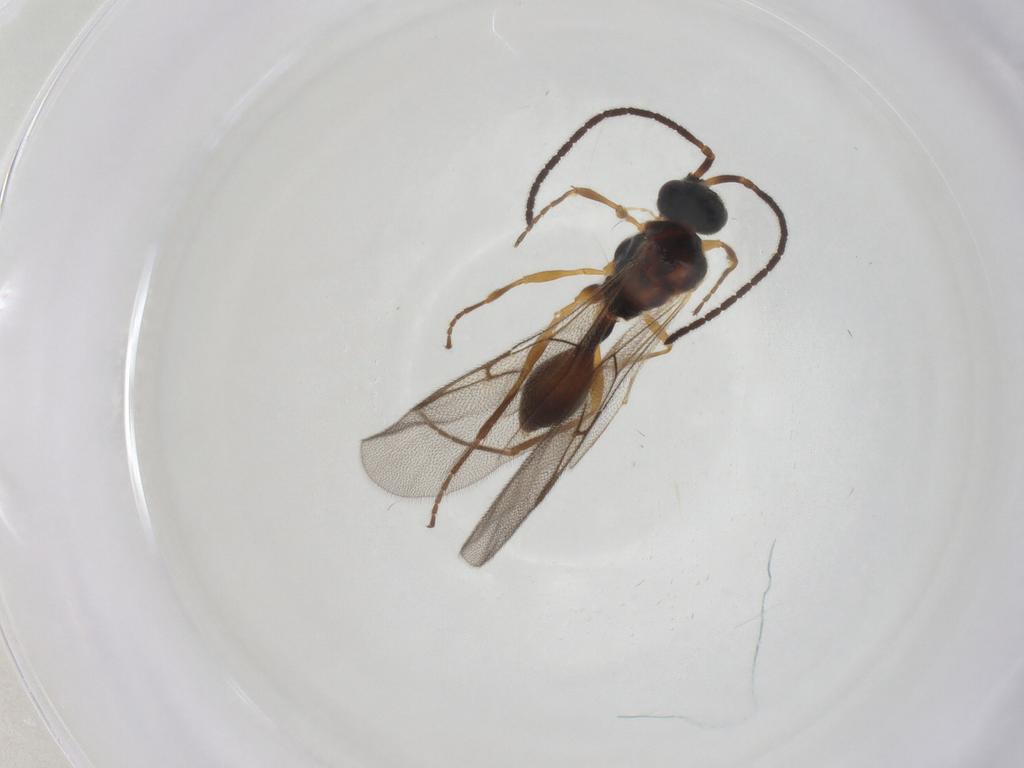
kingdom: Animalia
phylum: Arthropoda
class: Insecta
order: Hymenoptera
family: Diapriidae
